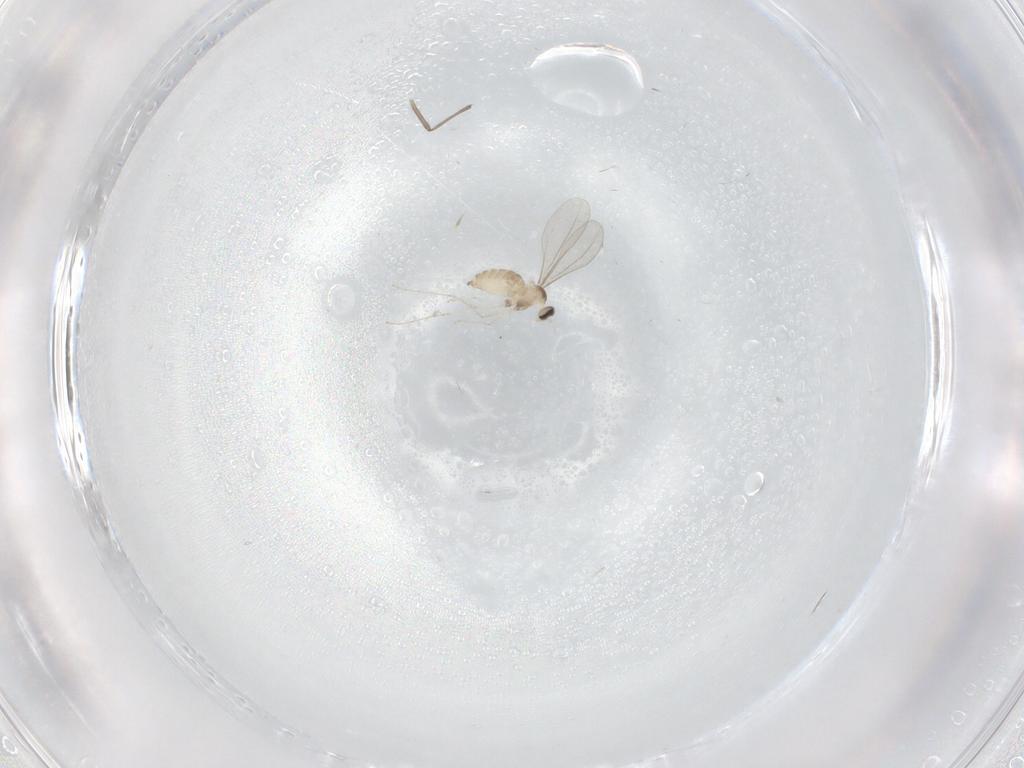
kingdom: Animalia
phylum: Arthropoda
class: Insecta
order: Diptera
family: Cecidomyiidae
